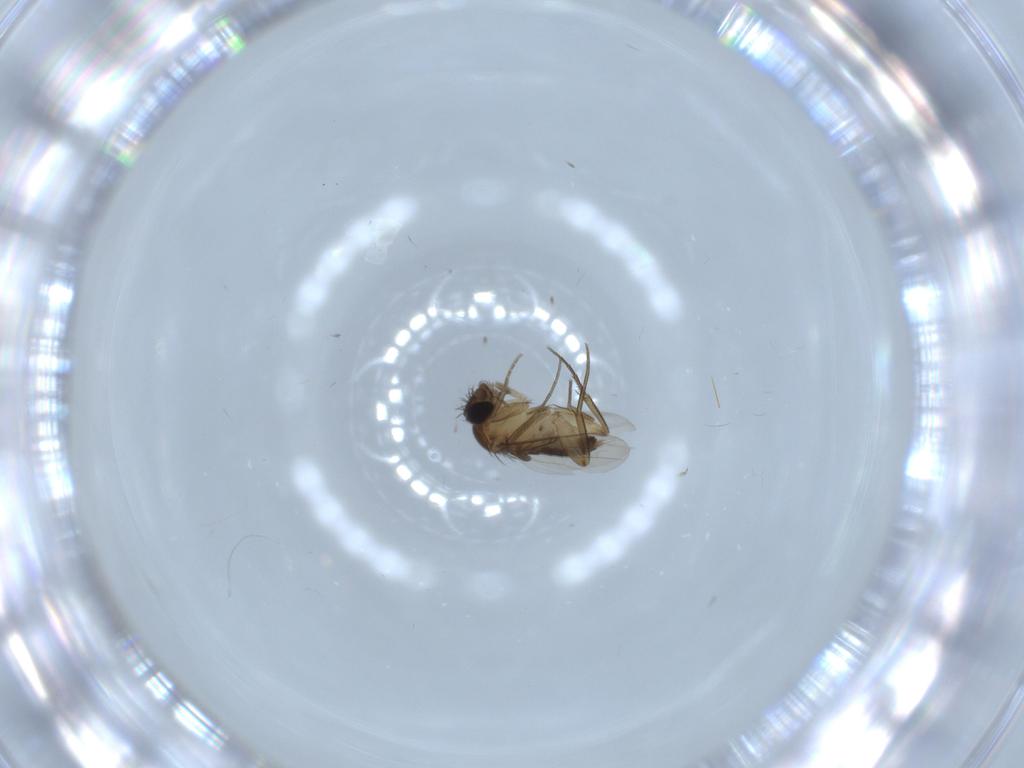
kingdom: Animalia
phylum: Arthropoda
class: Insecta
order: Diptera
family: Phoridae
